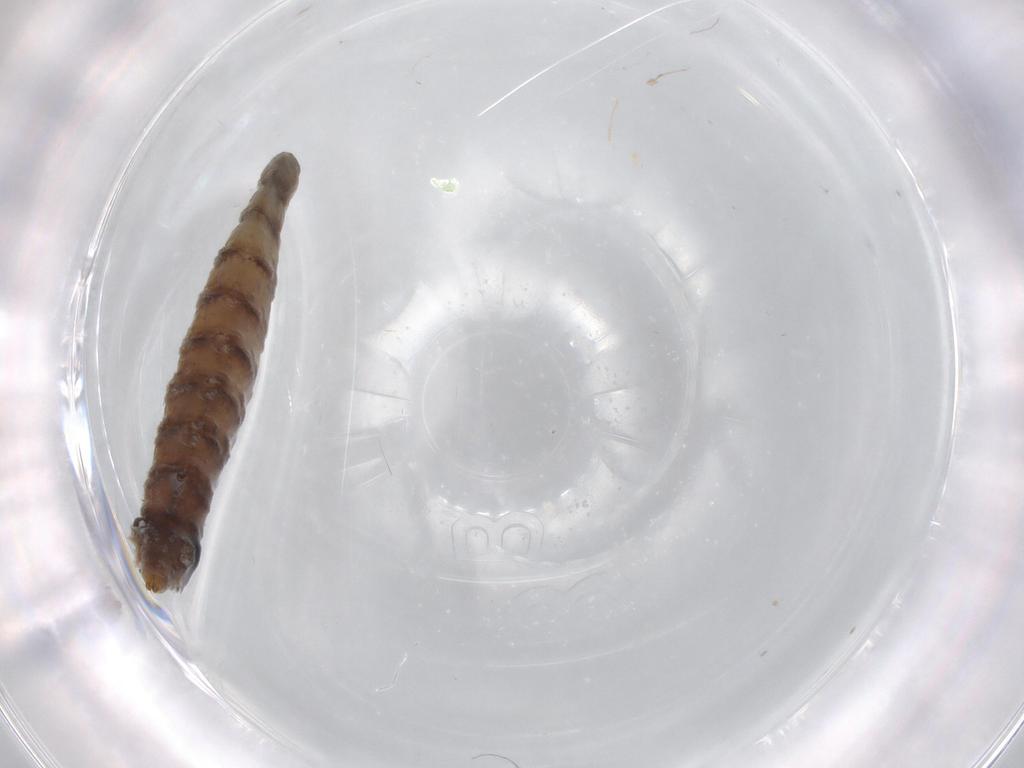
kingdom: Animalia
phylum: Arthropoda
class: Insecta
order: Diptera
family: Drosophilidae
